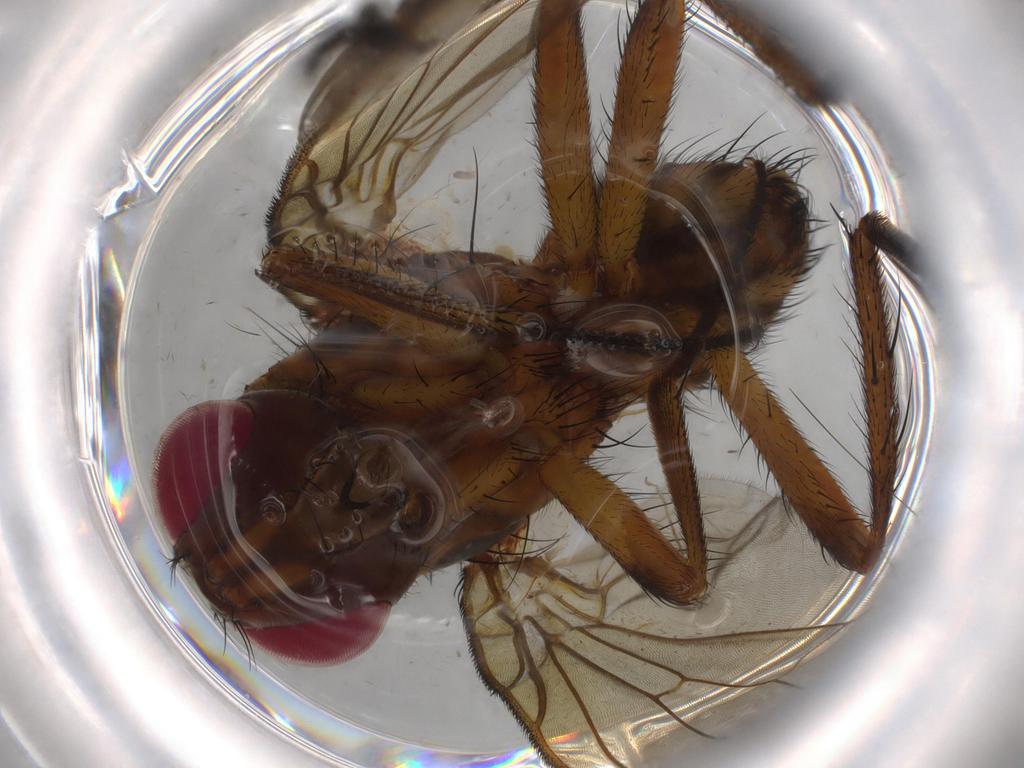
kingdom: Animalia
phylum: Arthropoda
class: Insecta
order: Diptera
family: Anthomyiidae
